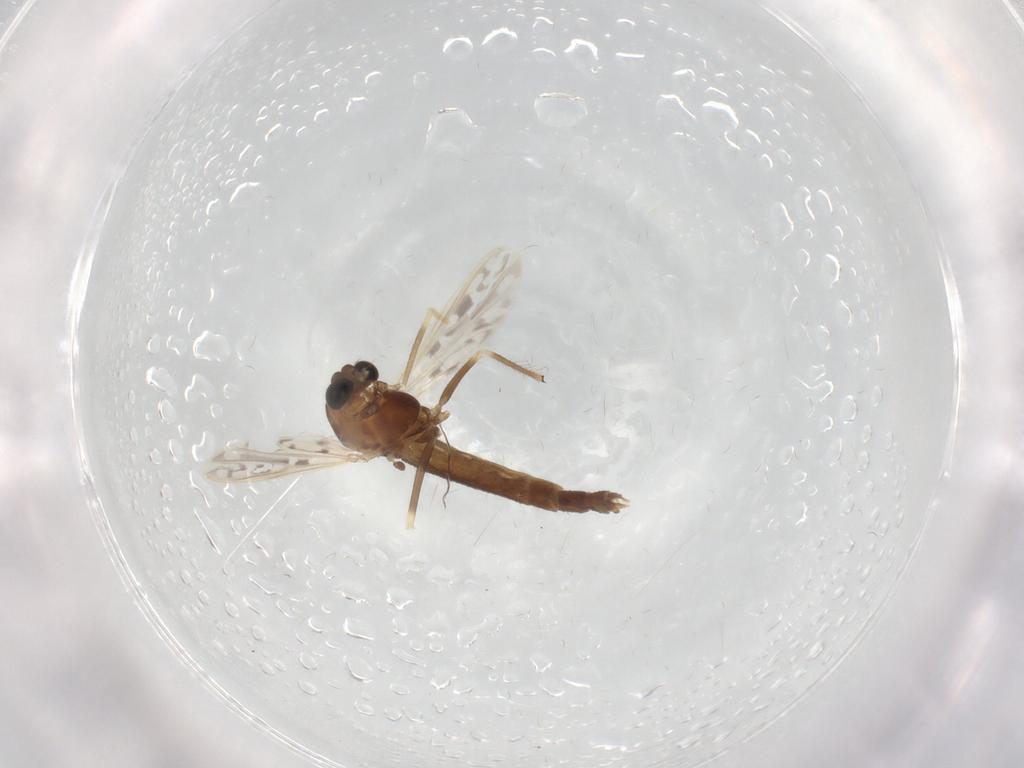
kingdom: Animalia
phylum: Arthropoda
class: Insecta
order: Diptera
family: Chironomidae
